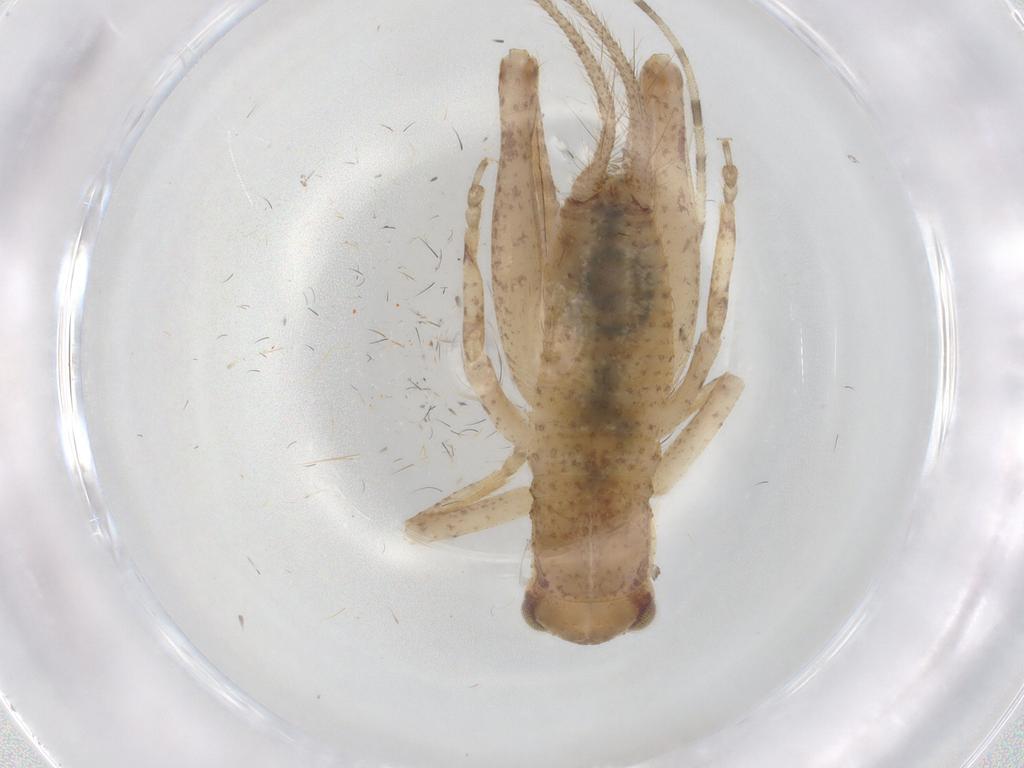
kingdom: Animalia
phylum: Arthropoda
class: Insecta
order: Orthoptera
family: Gryllidae
